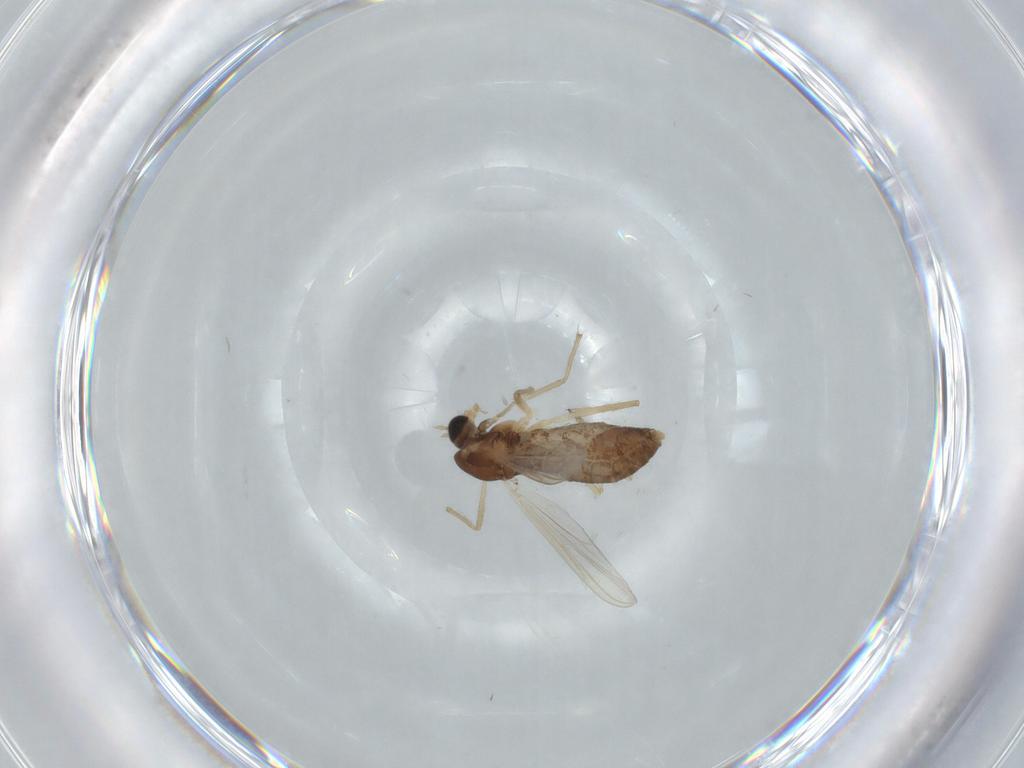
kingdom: Animalia
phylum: Arthropoda
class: Insecta
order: Diptera
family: Chironomidae
